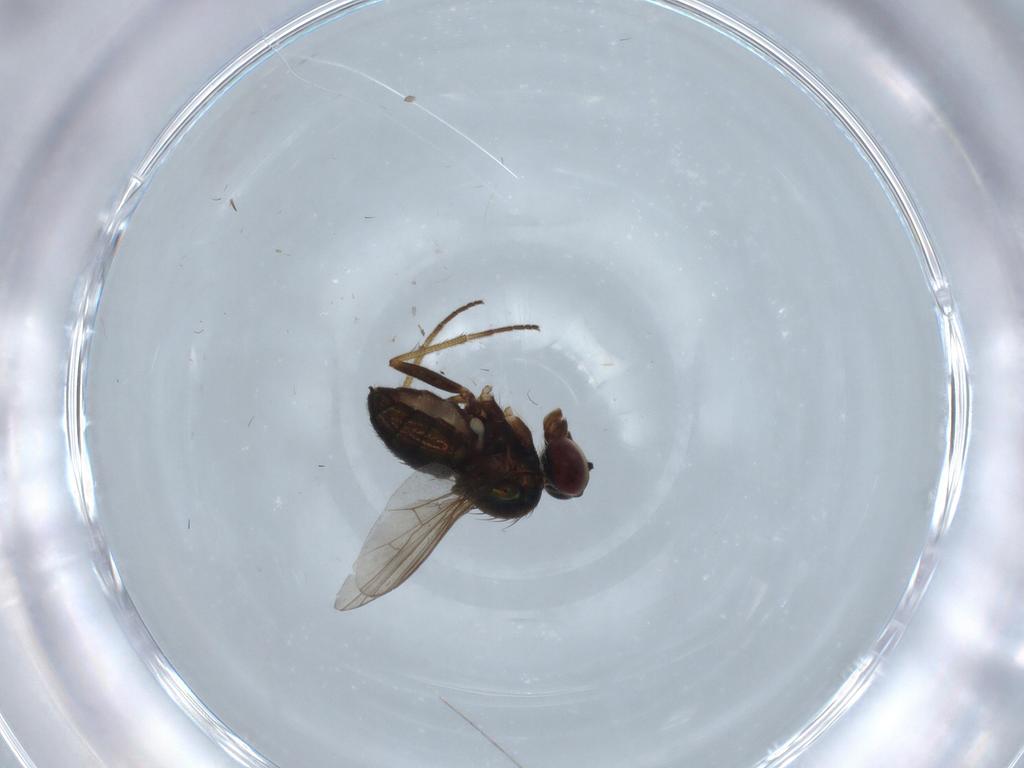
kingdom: Animalia
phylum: Arthropoda
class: Insecta
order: Diptera
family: Dolichopodidae
